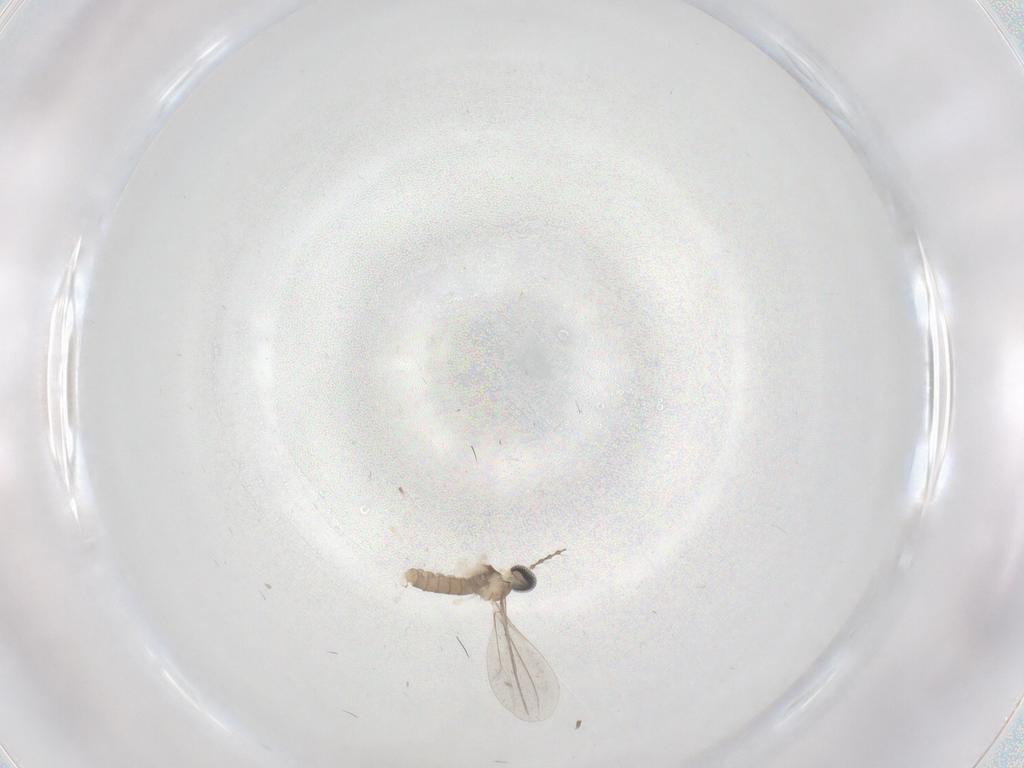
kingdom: Animalia
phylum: Arthropoda
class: Insecta
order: Diptera
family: Cecidomyiidae
